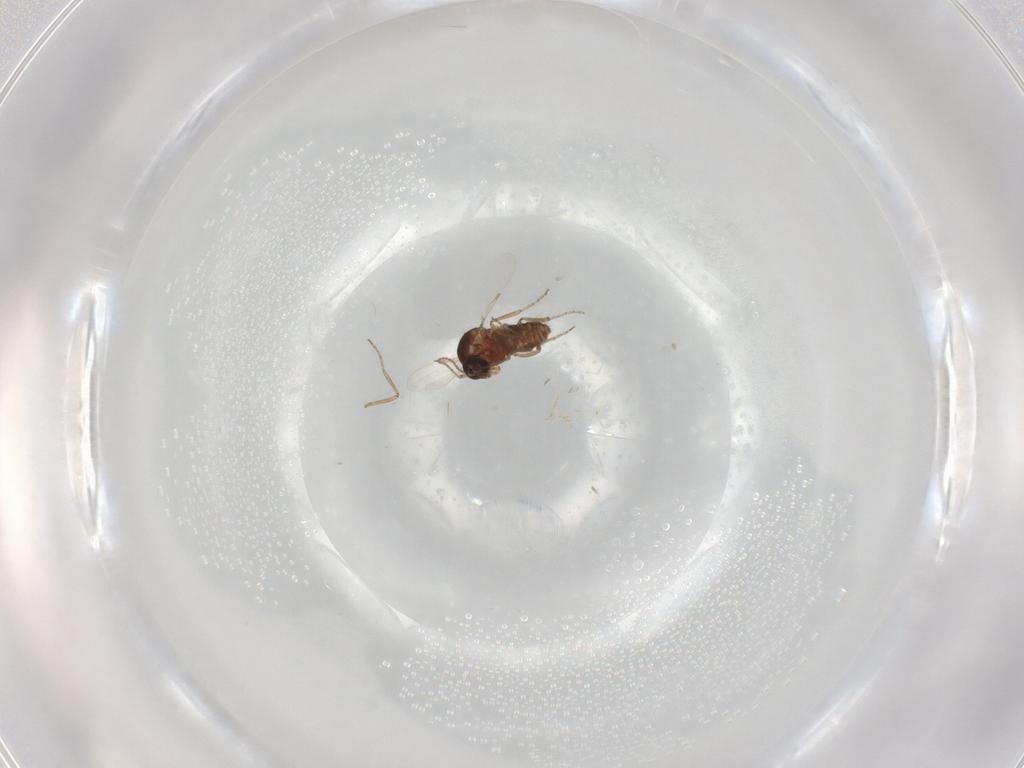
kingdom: Animalia
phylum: Arthropoda
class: Insecta
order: Diptera
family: Ceratopogonidae
